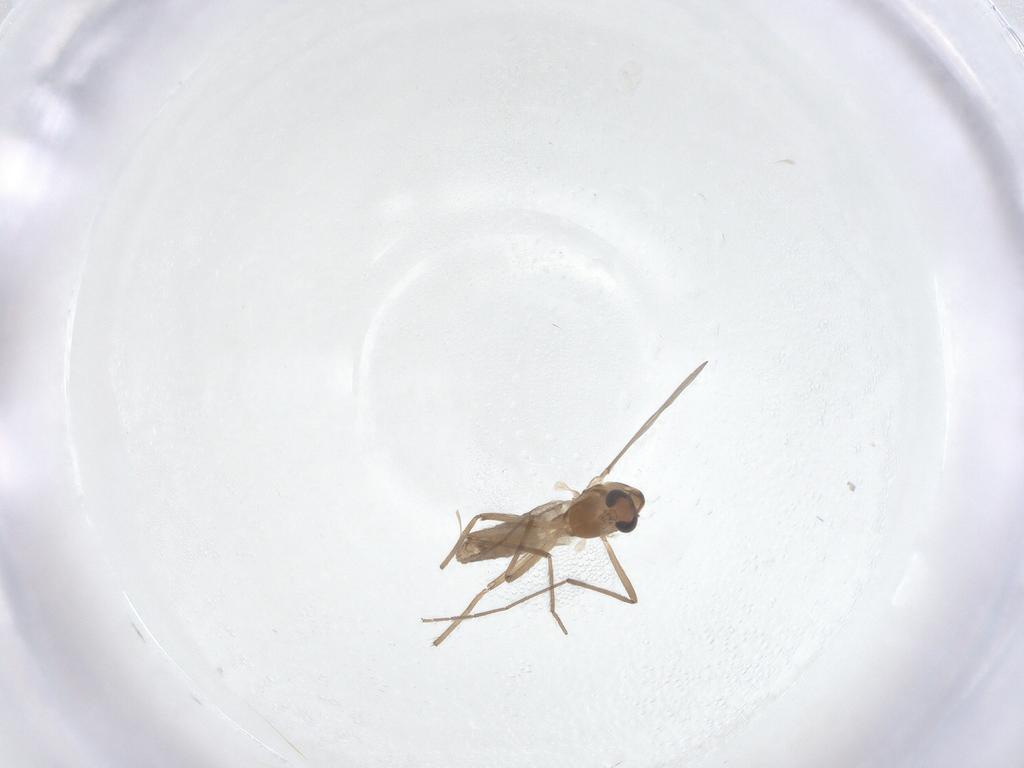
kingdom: Animalia
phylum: Arthropoda
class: Insecta
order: Diptera
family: Chironomidae
